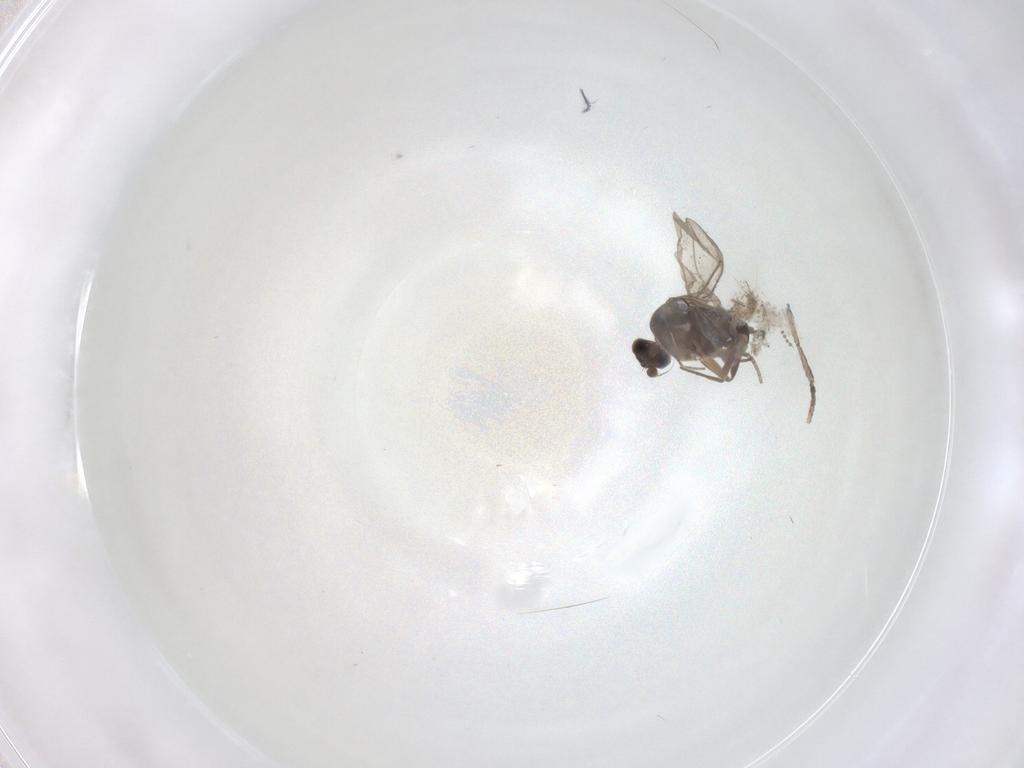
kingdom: Animalia
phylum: Arthropoda
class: Insecta
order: Diptera
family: Cecidomyiidae
